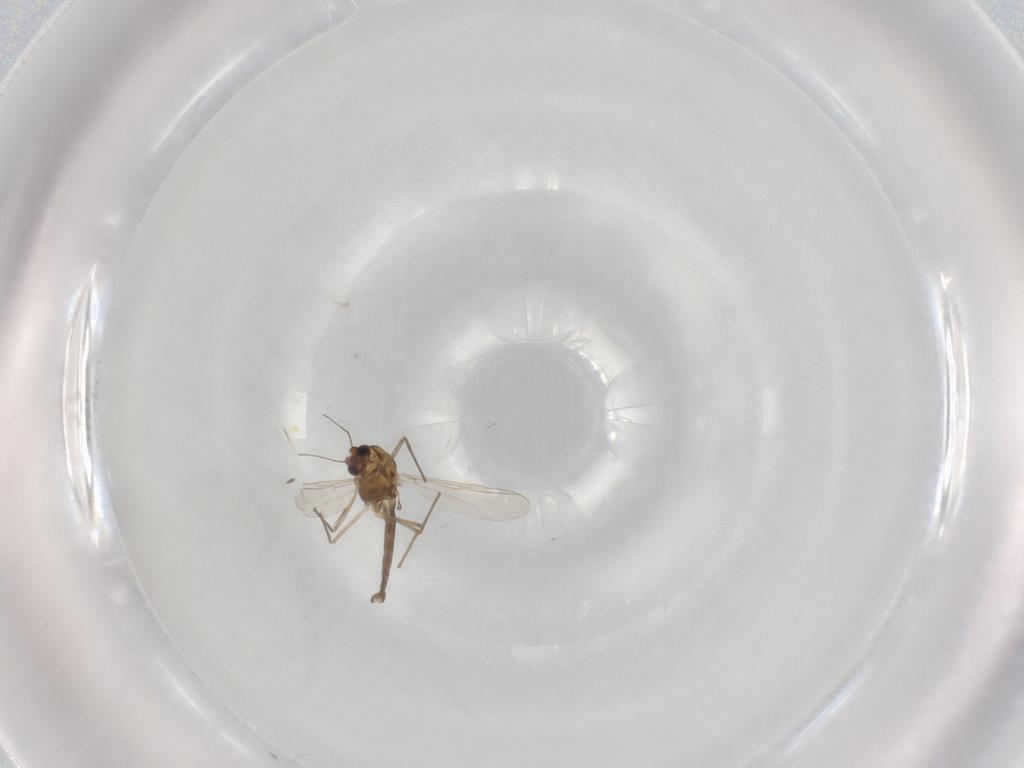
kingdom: Animalia
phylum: Arthropoda
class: Insecta
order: Diptera
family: Chironomidae
